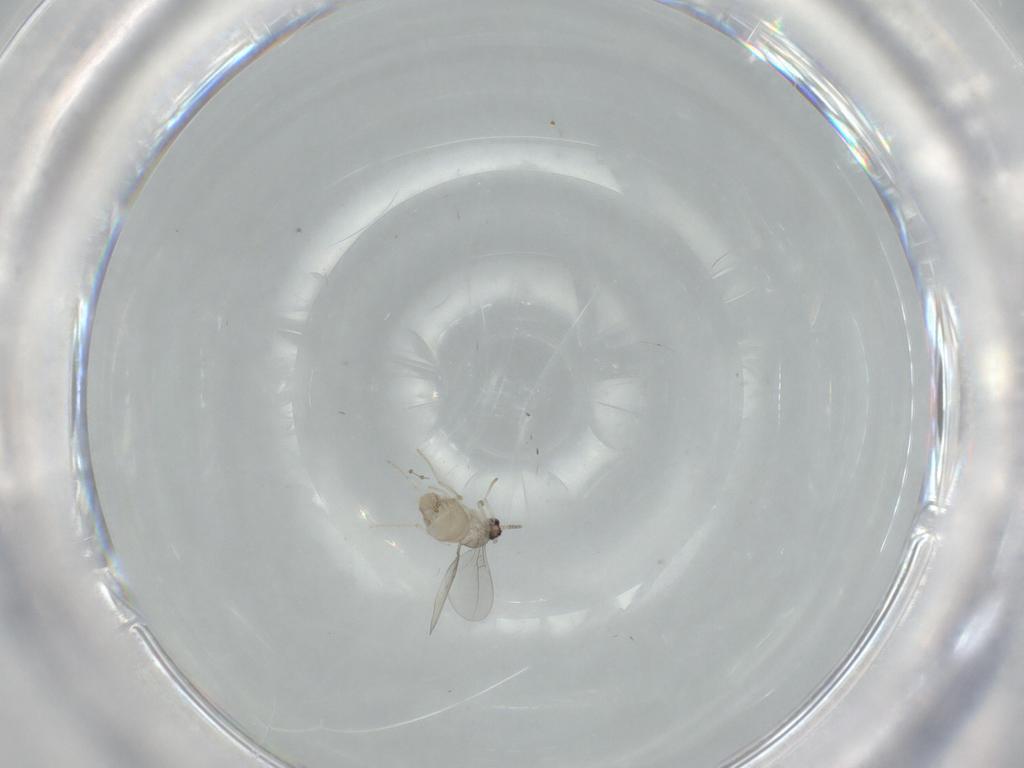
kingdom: Animalia
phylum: Arthropoda
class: Insecta
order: Diptera
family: Cecidomyiidae
